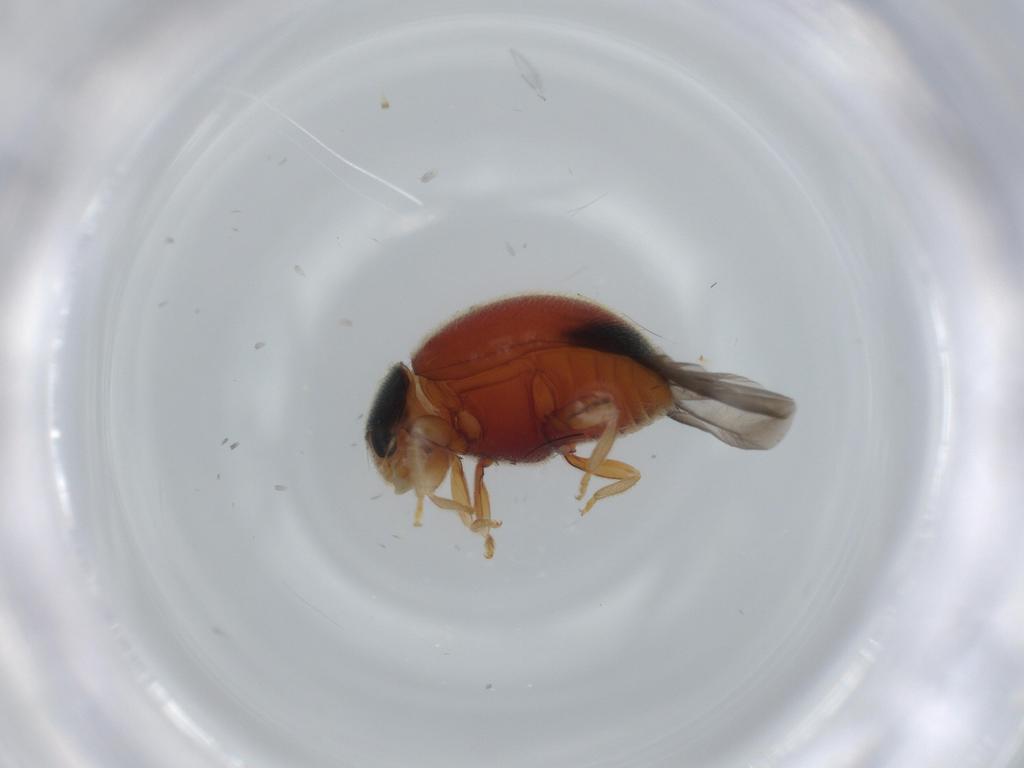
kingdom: Animalia
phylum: Arthropoda
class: Insecta
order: Coleoptera
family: Coccinellidae
